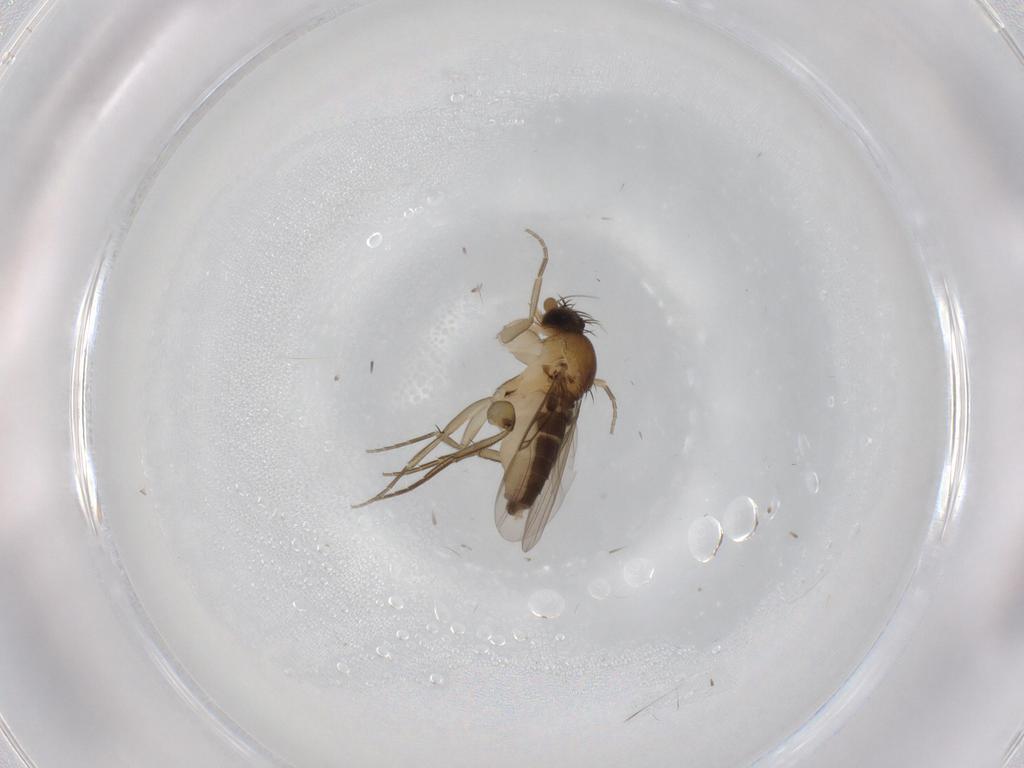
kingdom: Animalia
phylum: Arthropoda
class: Insecta
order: Diptera
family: Phoridae
